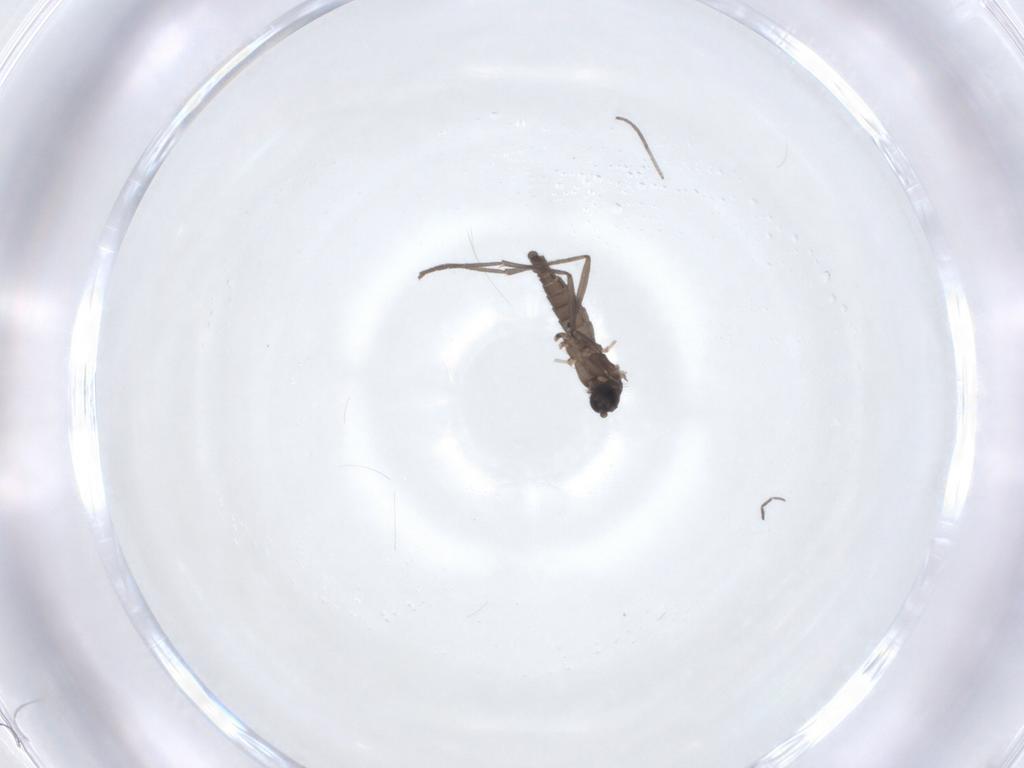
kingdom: Animalia
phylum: Arthropoda
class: Insecta
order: Diptera
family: Sciaridae
